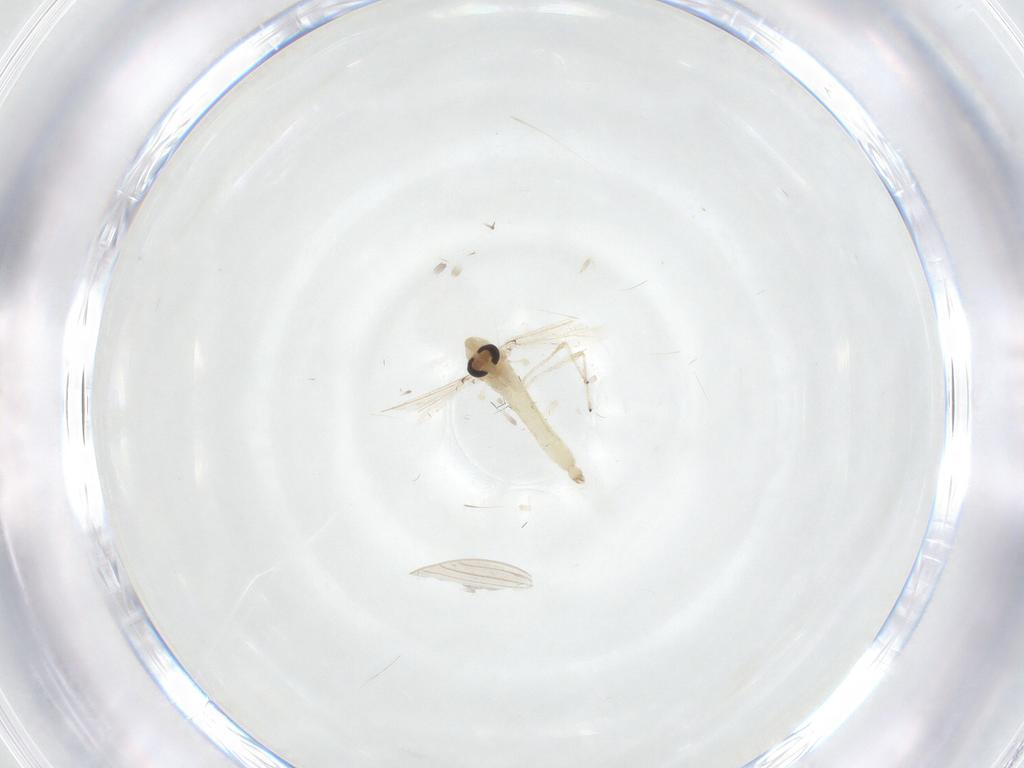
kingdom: Animalia
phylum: Arthropoda
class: Insecta
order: Diptera
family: Chironomidae
